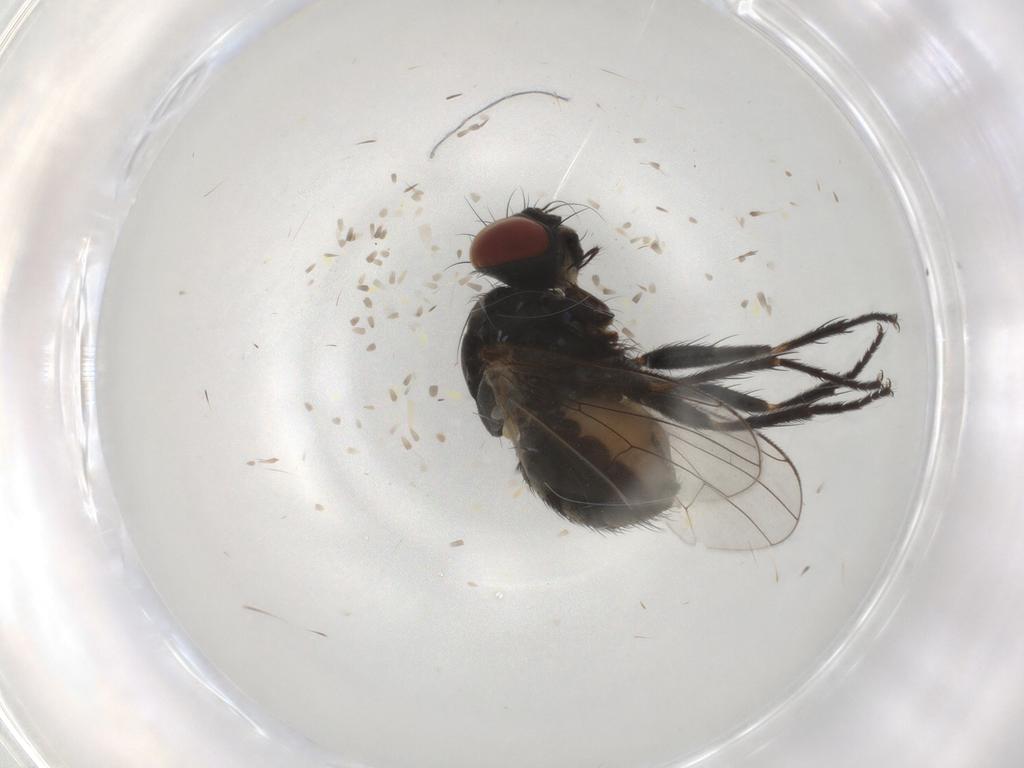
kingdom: Animalia
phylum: Arthropoda
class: Insecta
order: Diptera
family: Muscidae
